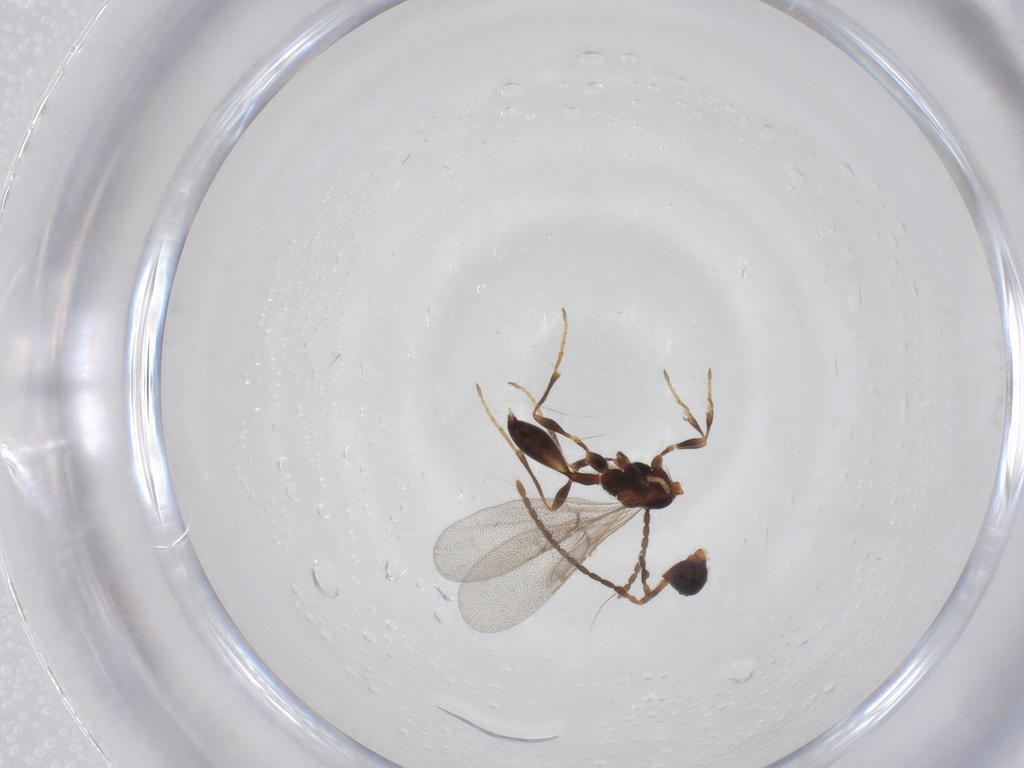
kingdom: Animalia
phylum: Arthropoda
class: Insecta
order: Hymenoptera
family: Diapriidae
